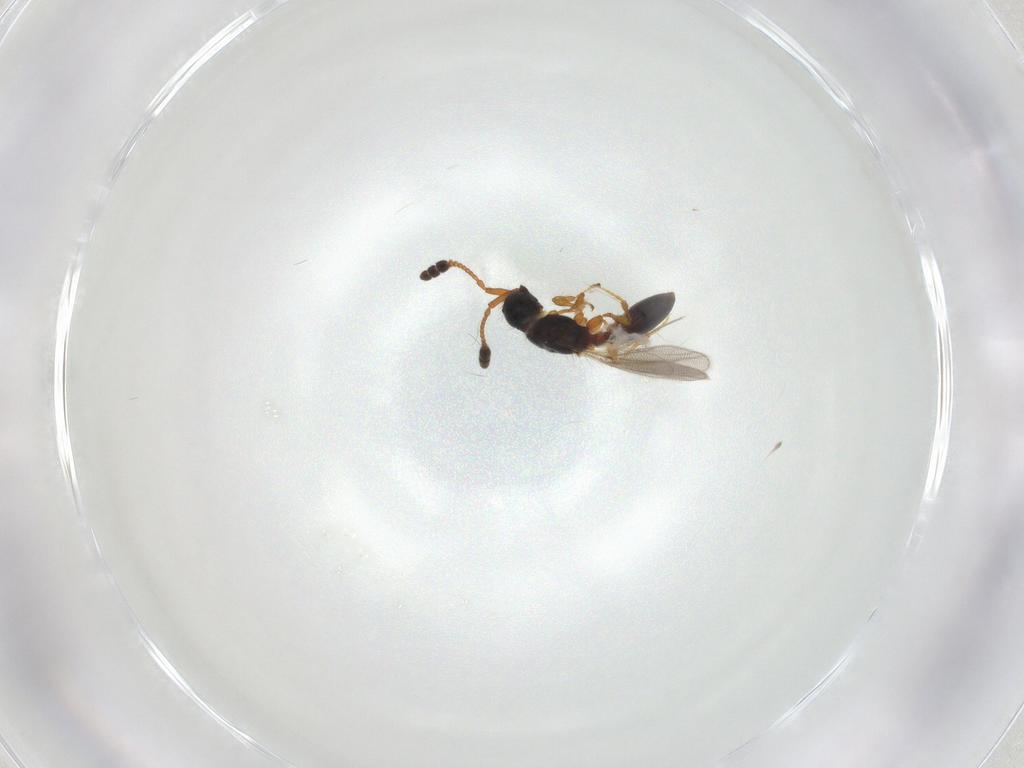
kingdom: Animalia
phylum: Arthropoda
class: Insecta
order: Hymenoptera
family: Diapriidae
